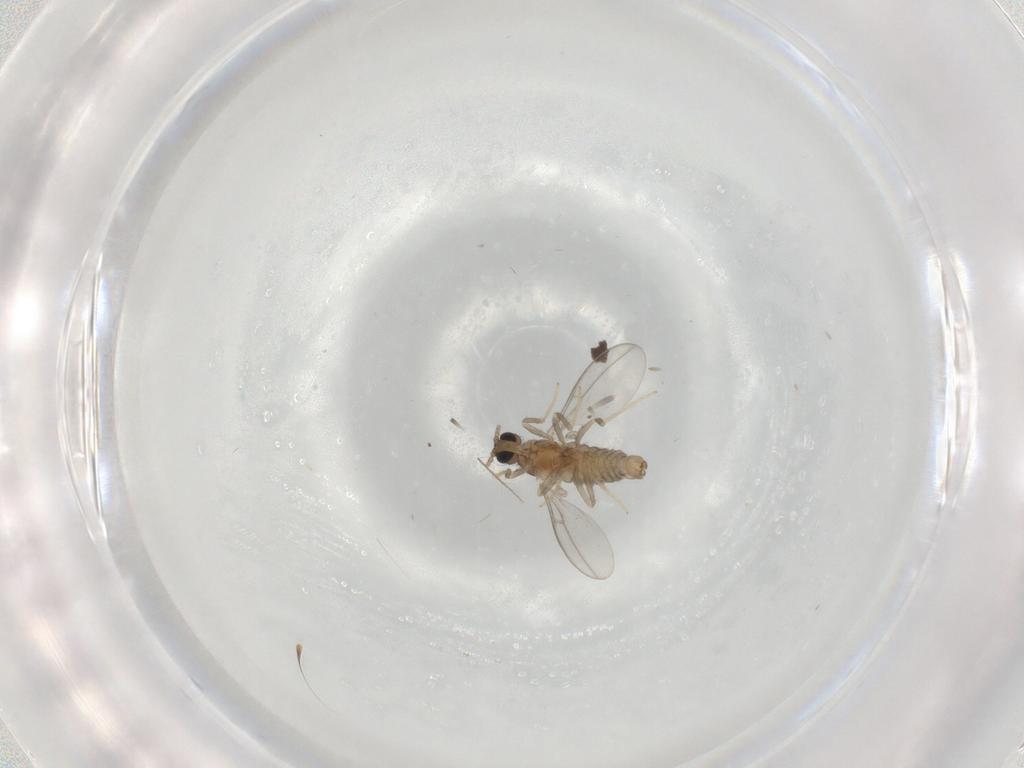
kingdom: Animalia
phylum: Arthropoda
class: Insecta
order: Diptera
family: Cecidomyiidae
